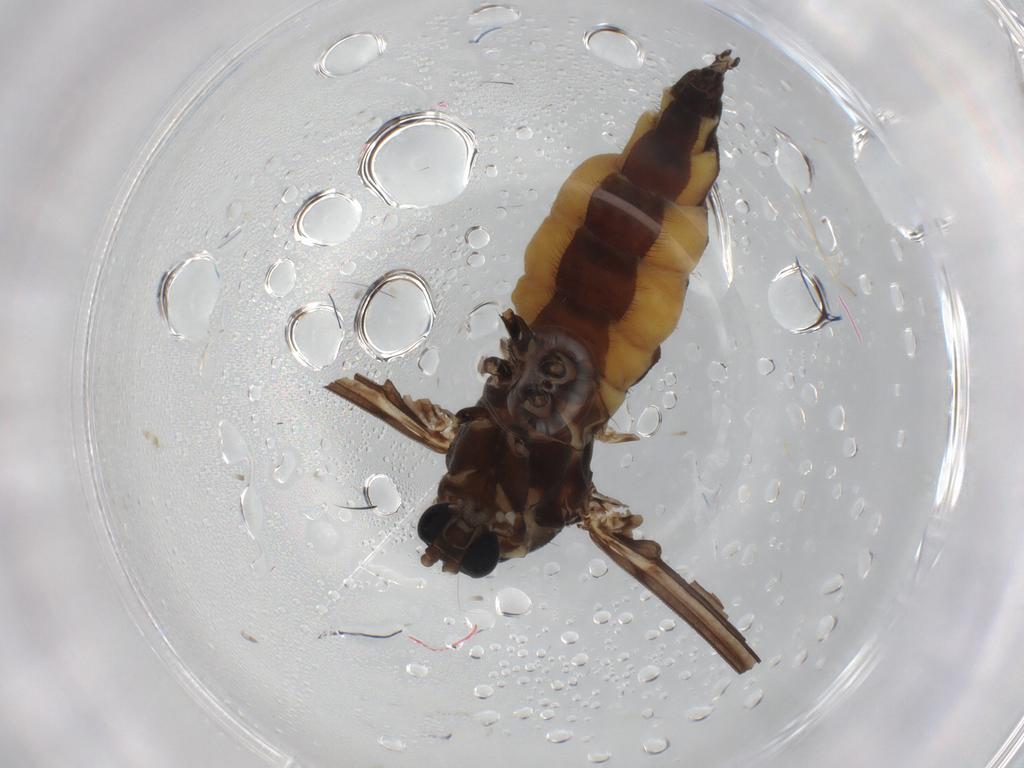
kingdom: Animalia
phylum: Arthropoda
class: Insecta
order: Diptera
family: Sciaridae
